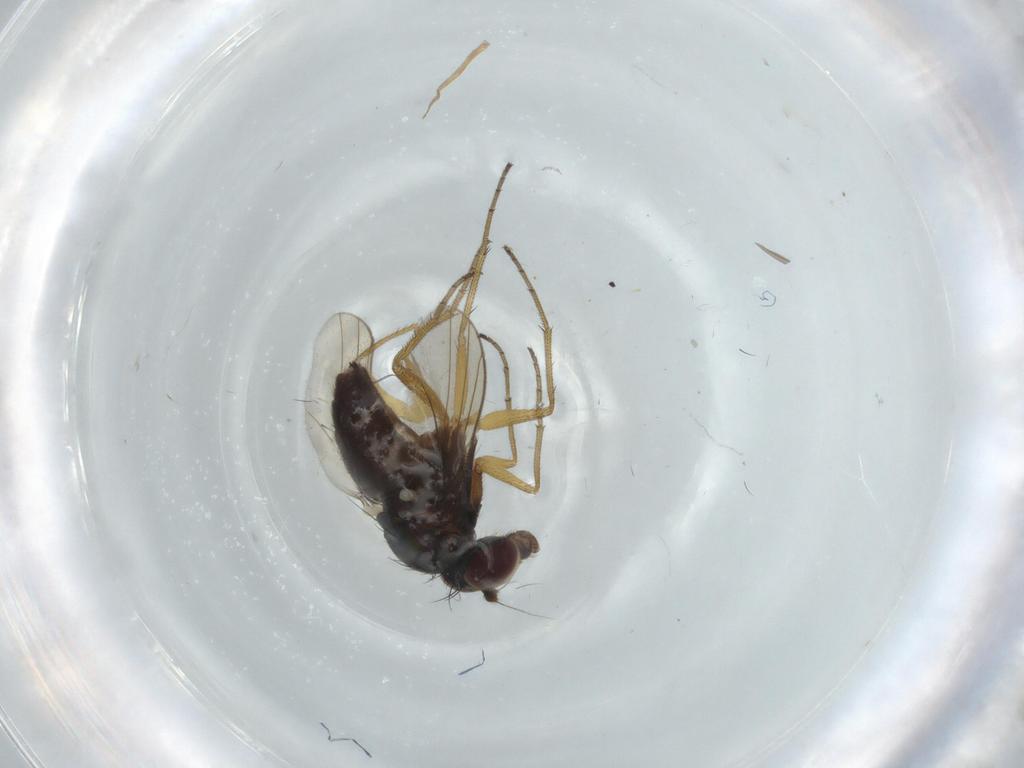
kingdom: Animalia
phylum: Arthropoda
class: Insecta
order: Diptera
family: Dolichopodidae
